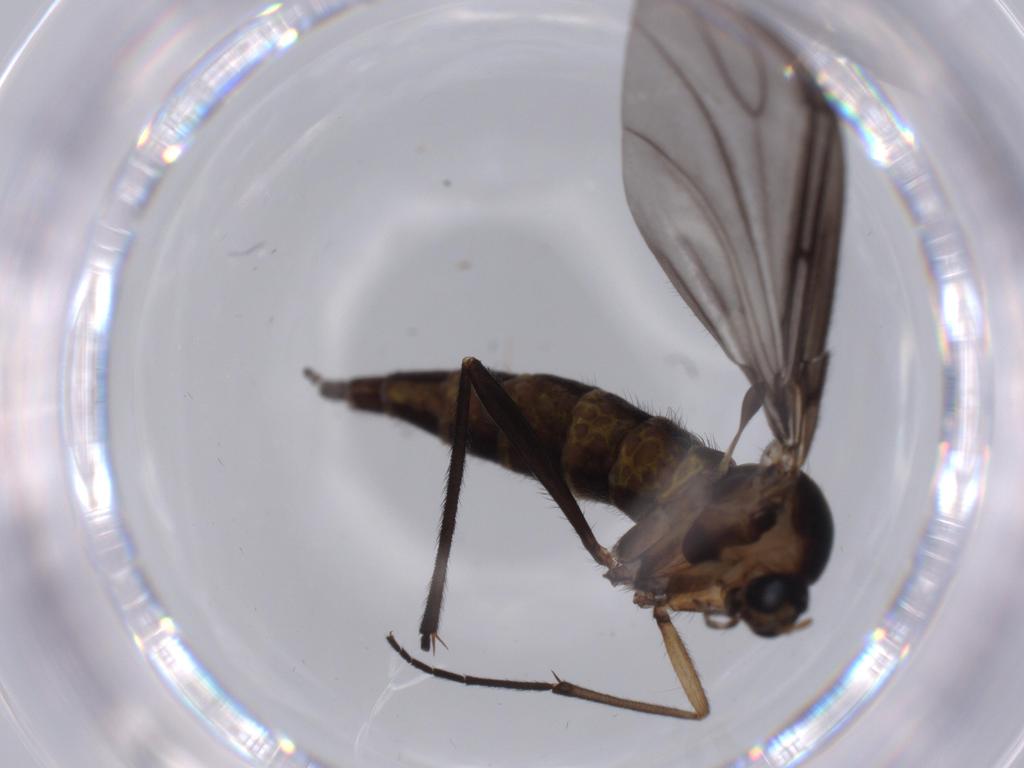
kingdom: Animalia
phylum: Arthropoda
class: Insecta
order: Diptera
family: Sciaridae
